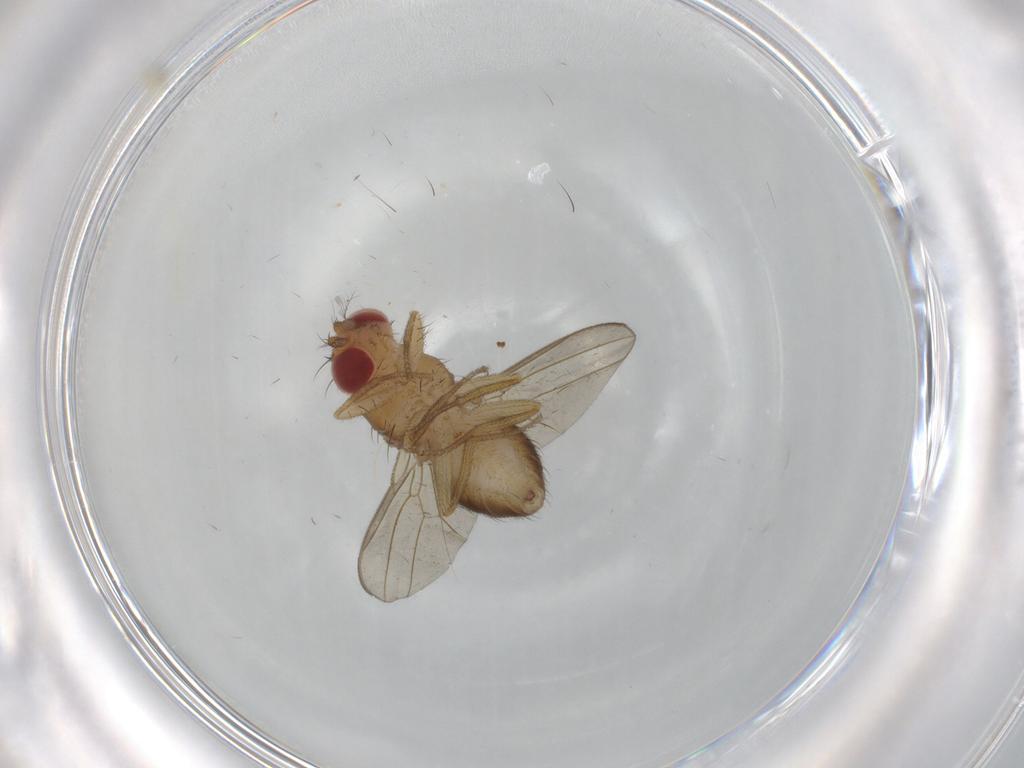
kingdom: Animalia
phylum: Arthropoda
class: Insecta
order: Diptera
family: Drosophilidae
